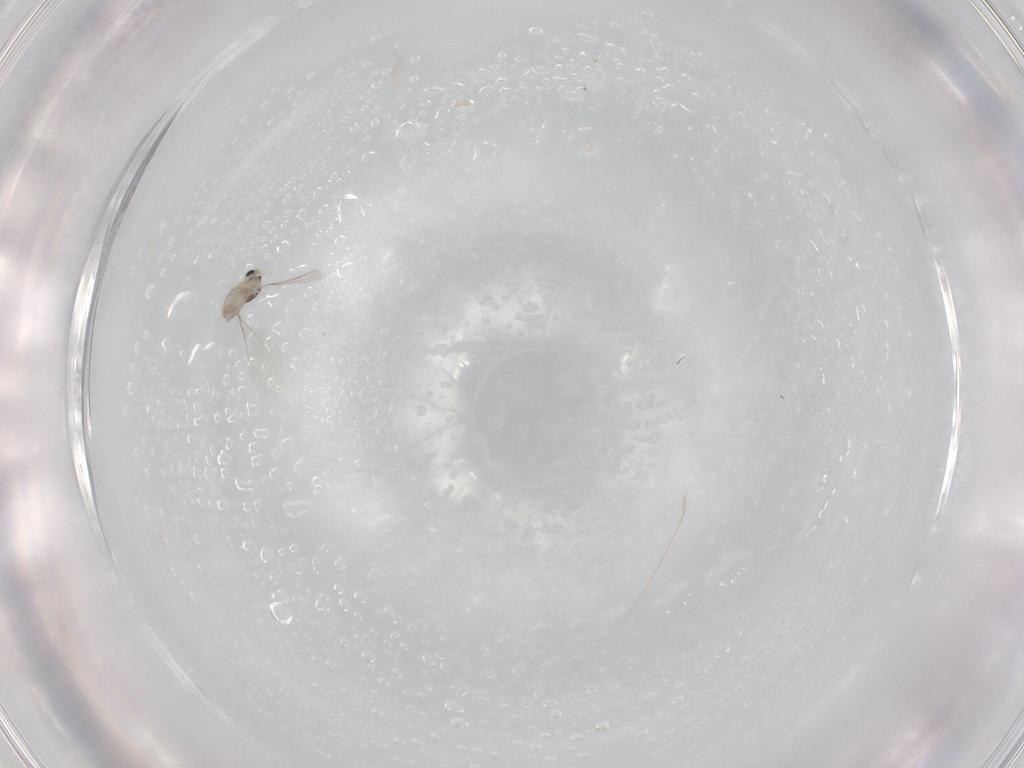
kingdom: Animalia
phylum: Arthropoda
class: Insecta
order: Diptera
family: Cecidomyiidae
